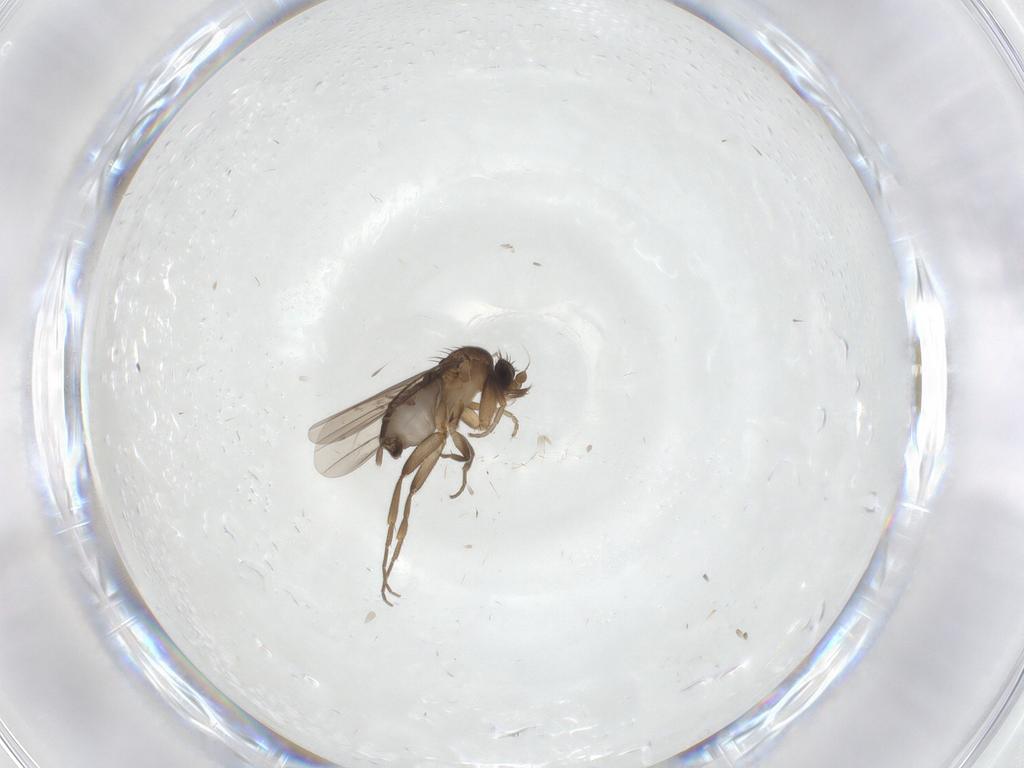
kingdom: Animalia
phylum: Arthropoda
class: Insecta
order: Diptera
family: Phoridae
